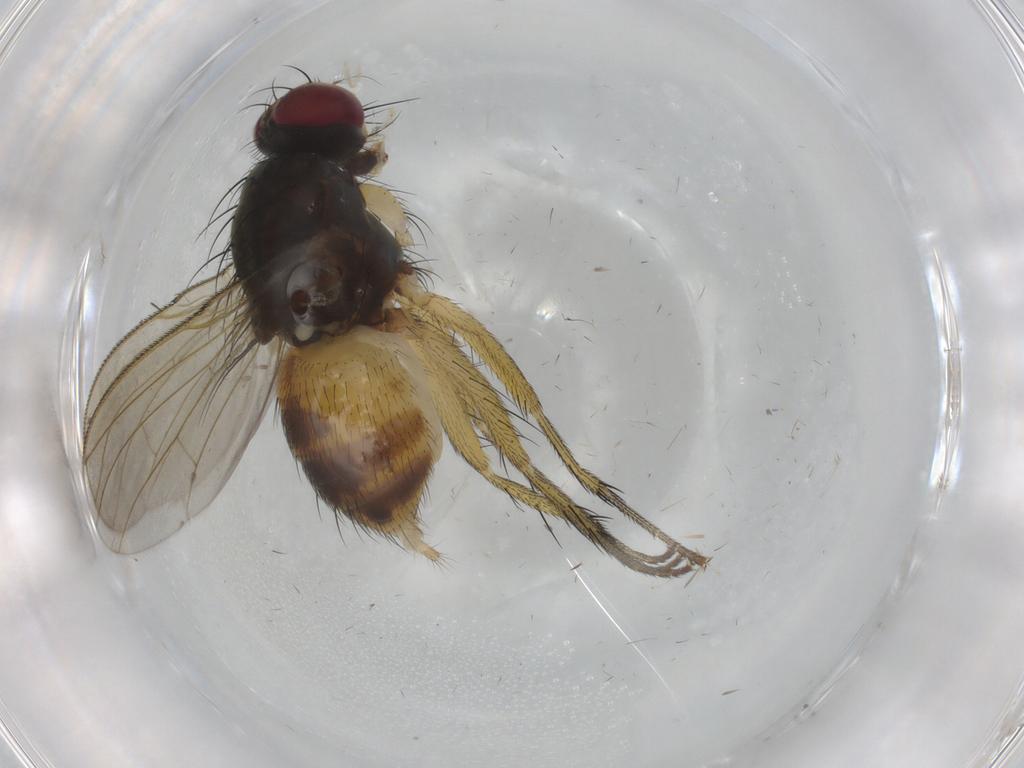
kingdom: Animalia
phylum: Arthropoda
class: Insecta
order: Diptera
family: Muscidae
